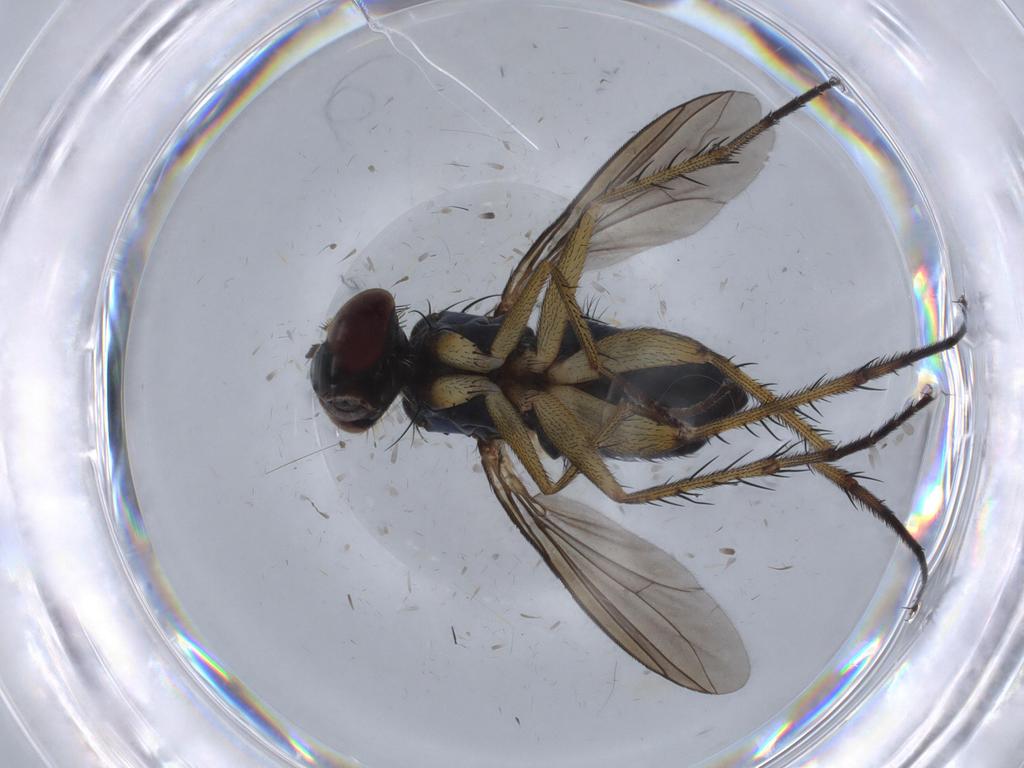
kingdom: Animalia
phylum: Arthropoda
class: Insecta
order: Diptera
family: Dolichopodidae
